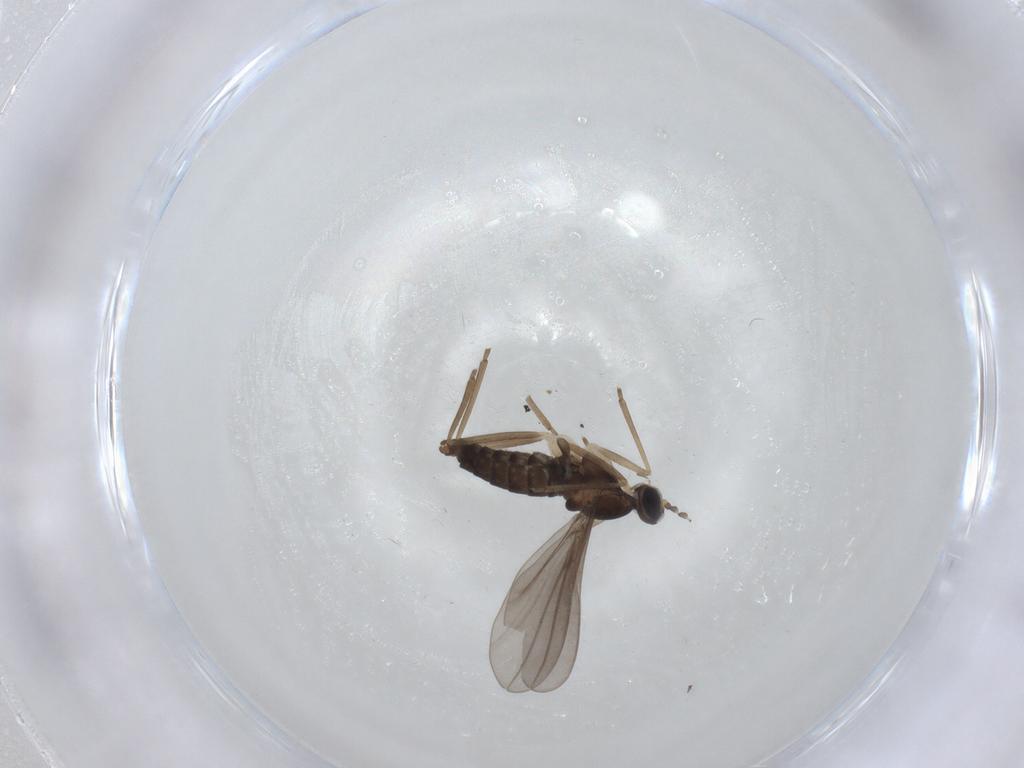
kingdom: Animalia
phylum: Arthropoda
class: Insecta
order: Diptera
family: Cecidomyiidae
